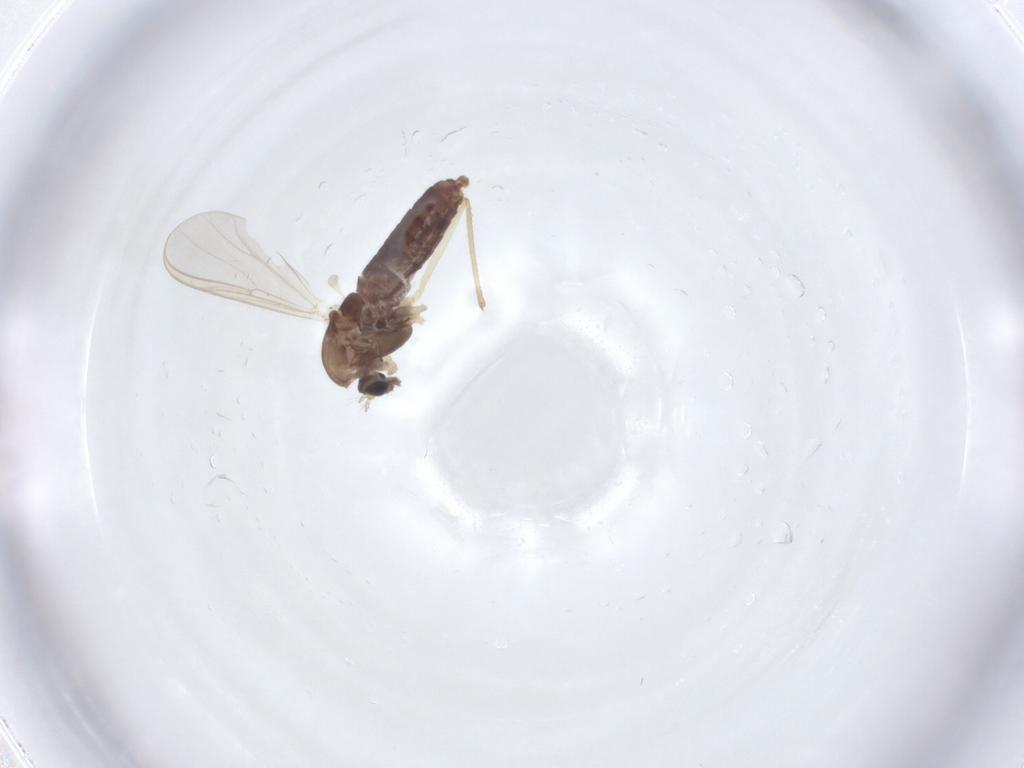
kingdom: Animalia
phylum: Arthropoda
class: Insecta
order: Diptera
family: Chironomidae
